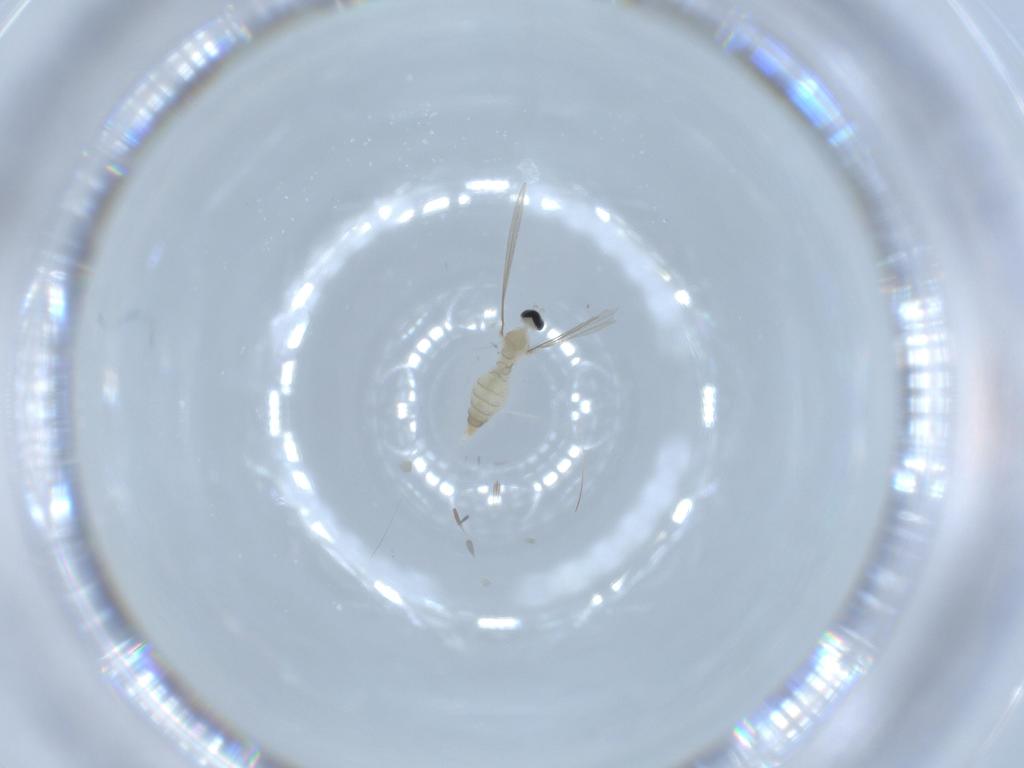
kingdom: Animalia
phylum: Arthropoda
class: Insecta
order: Diptera
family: Cecidomyiidae
